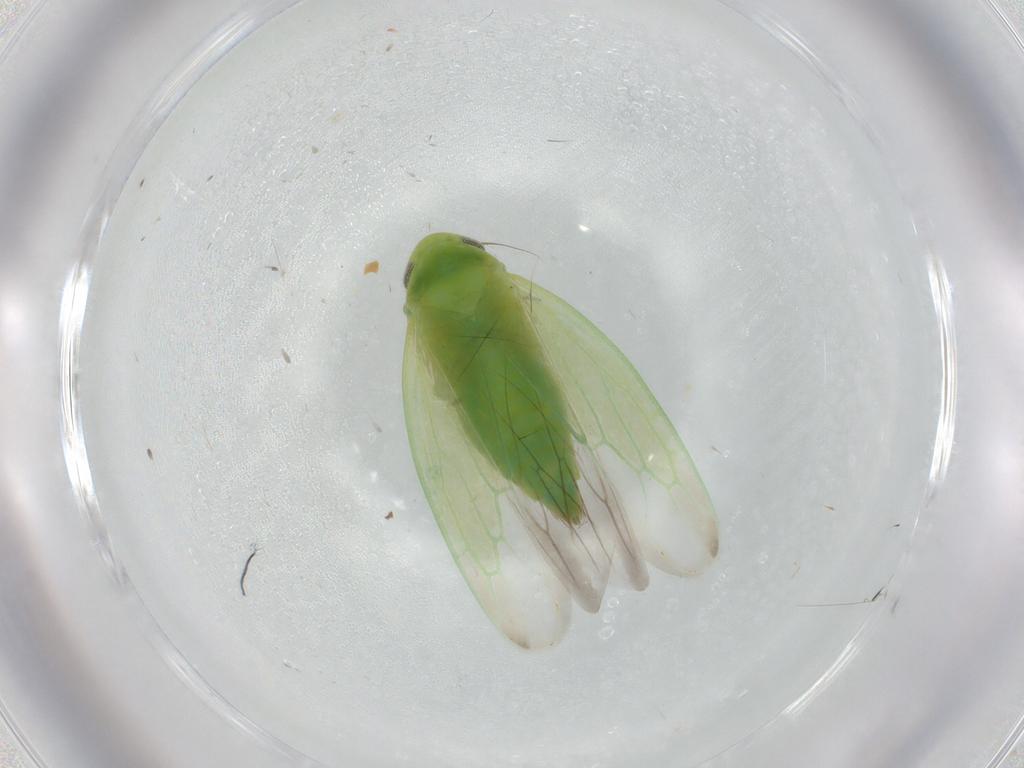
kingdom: Animalia
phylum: Arthropoda
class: Insecta
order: Hemiptera
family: Cicadellidae
